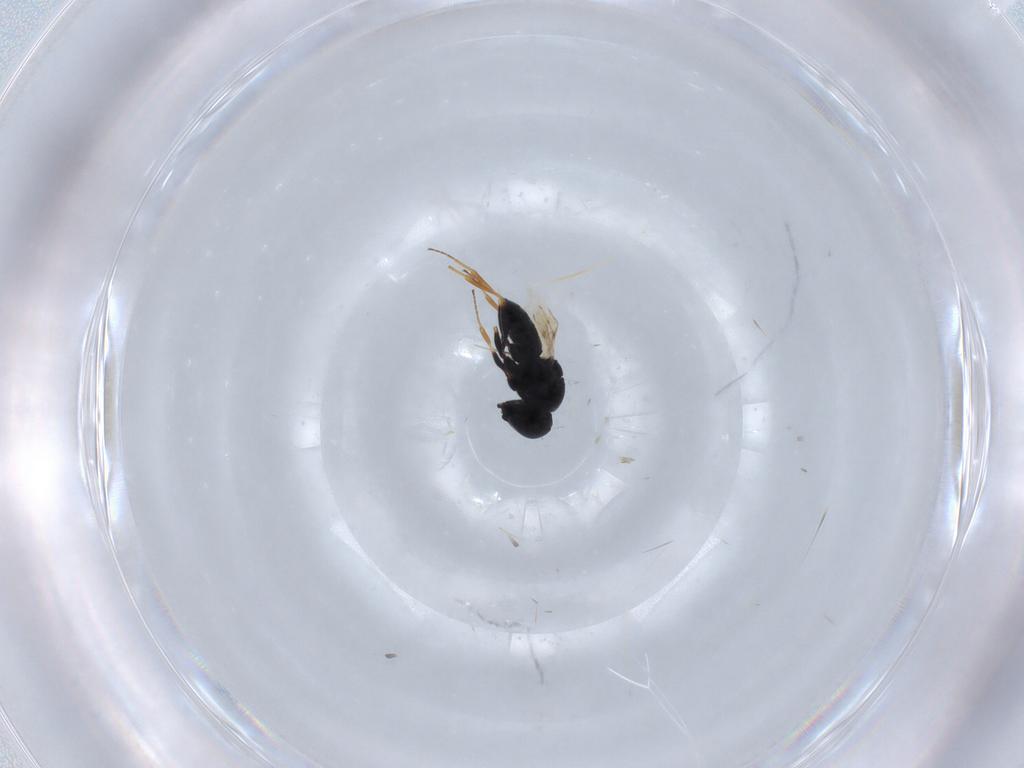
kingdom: Animalia
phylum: Arthropoda
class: Insecta
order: Hymenoptera
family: Scelionidae
